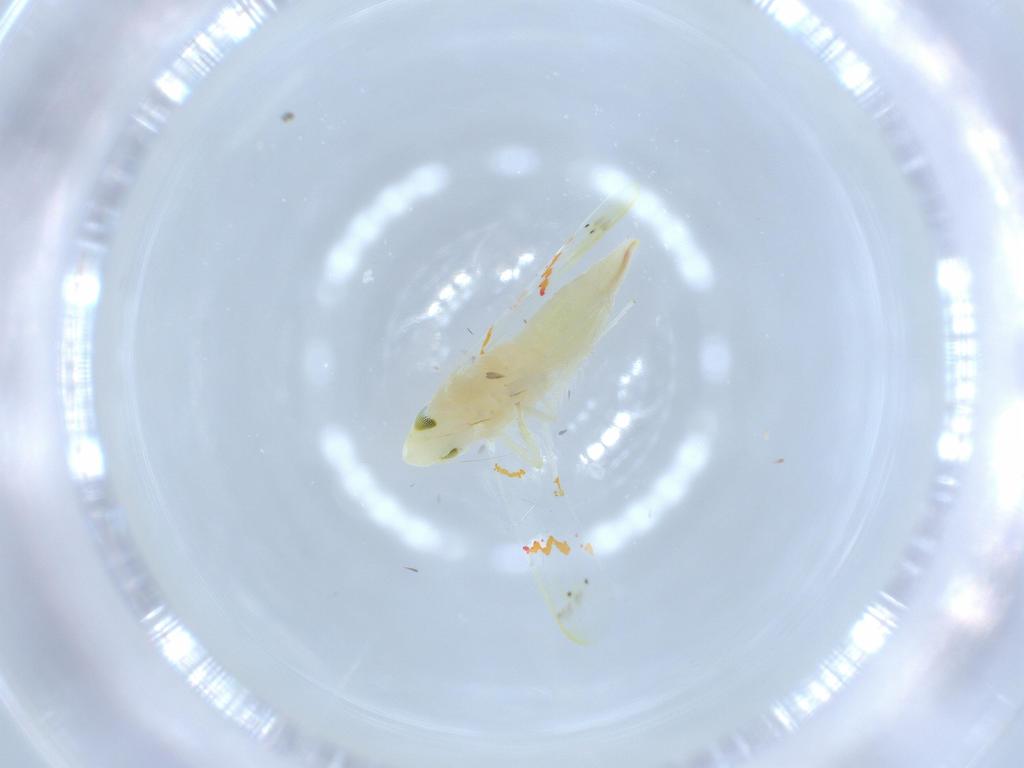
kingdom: Animalia
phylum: Arthropoda
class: Insecta
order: Hemiptera
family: Cicadellidae
